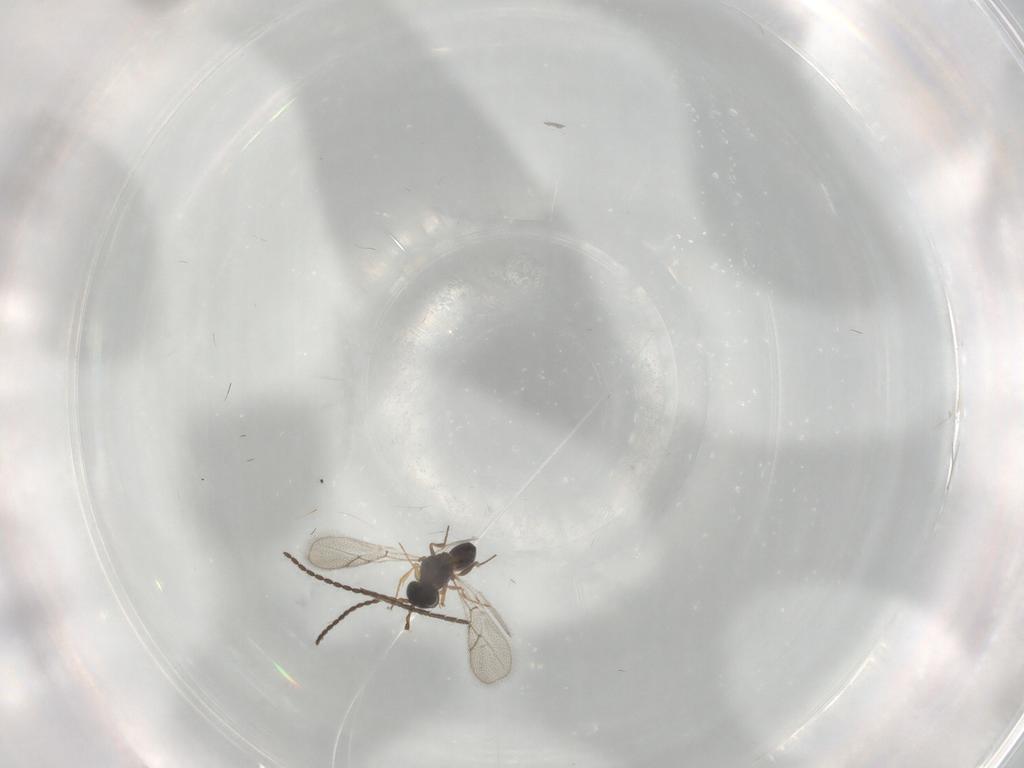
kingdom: Animalia
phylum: Arthropoda
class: Insecta
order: Hymenoptera
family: Figitidae
